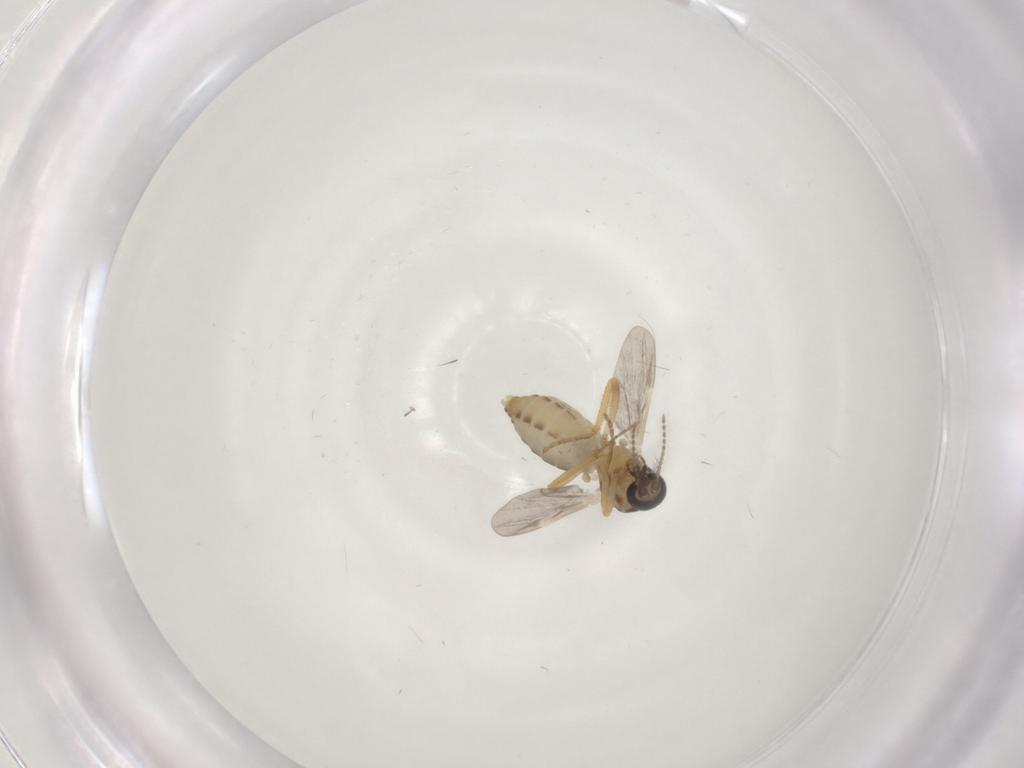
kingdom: Animalia
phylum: Arthropoda
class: Insecta
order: Diptera
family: Ceratopogonidae
